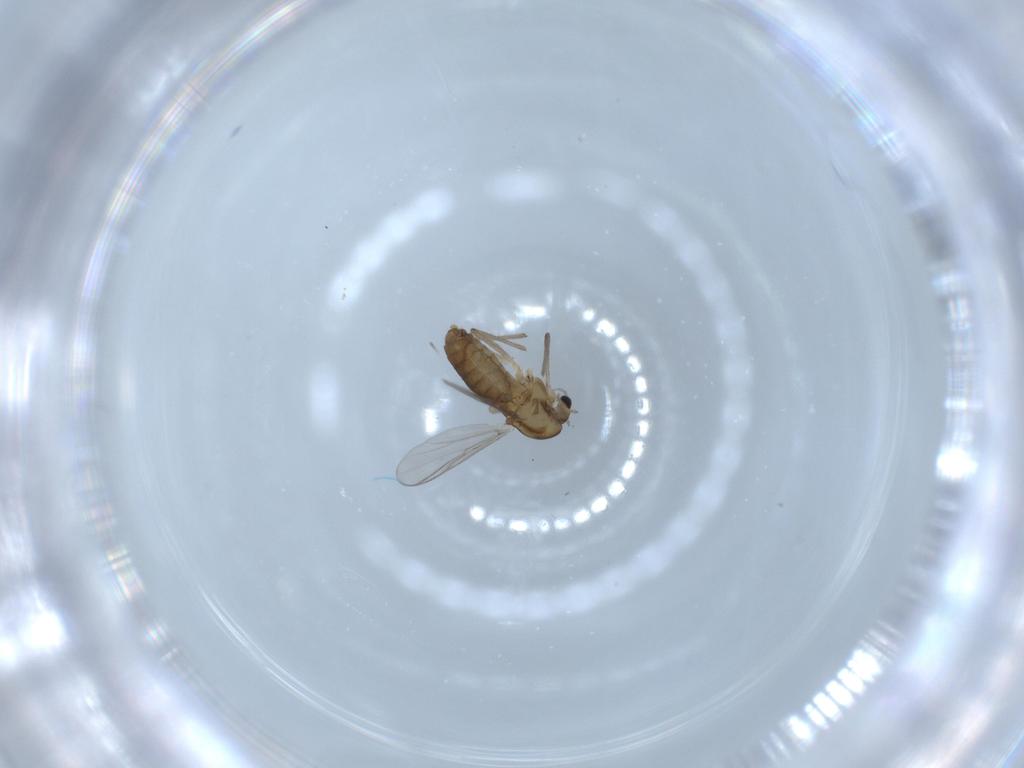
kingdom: Animalia
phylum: Arthropoda
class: Insecta
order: Diptera
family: Chironomidae
